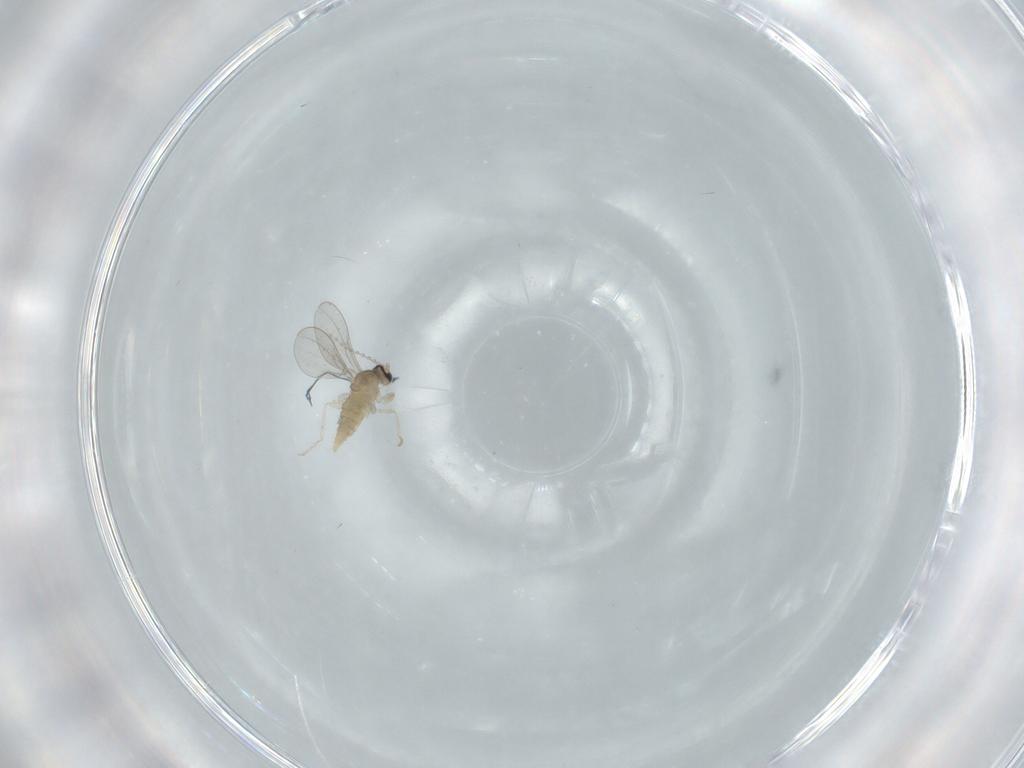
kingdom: Animalia
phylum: Arthropoda
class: Insecta
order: Diptera
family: Cecidomyiidae
